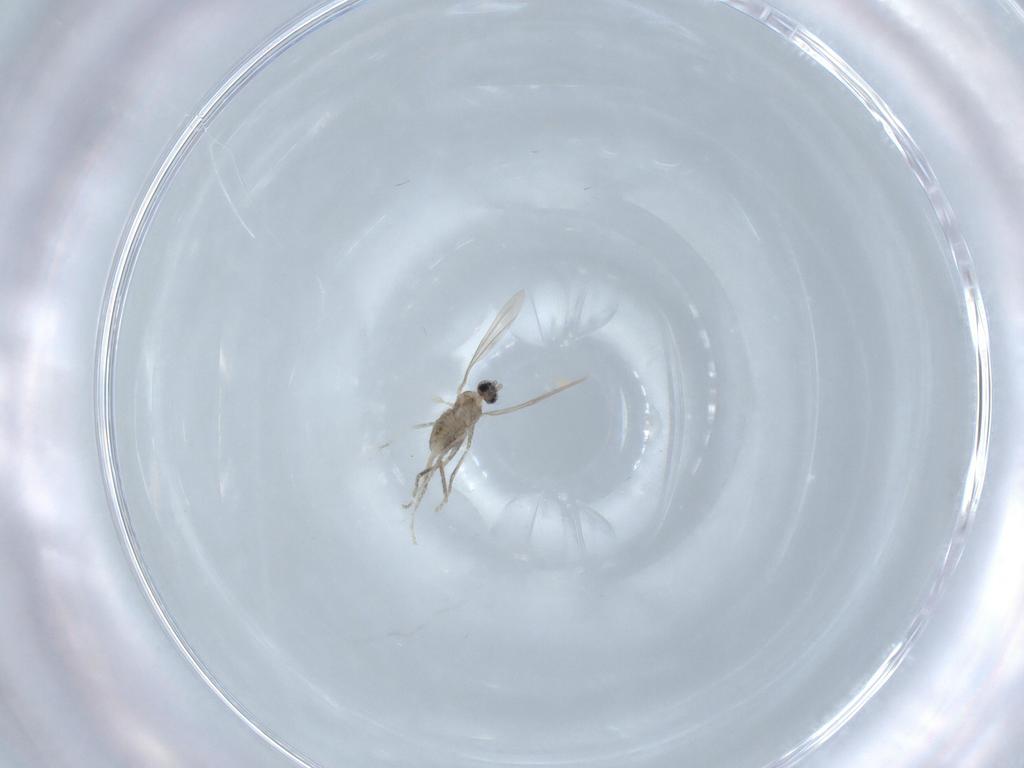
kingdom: Animalia
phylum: Arthropoda
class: Insecta
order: Diptera
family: Cecidomyiidae
